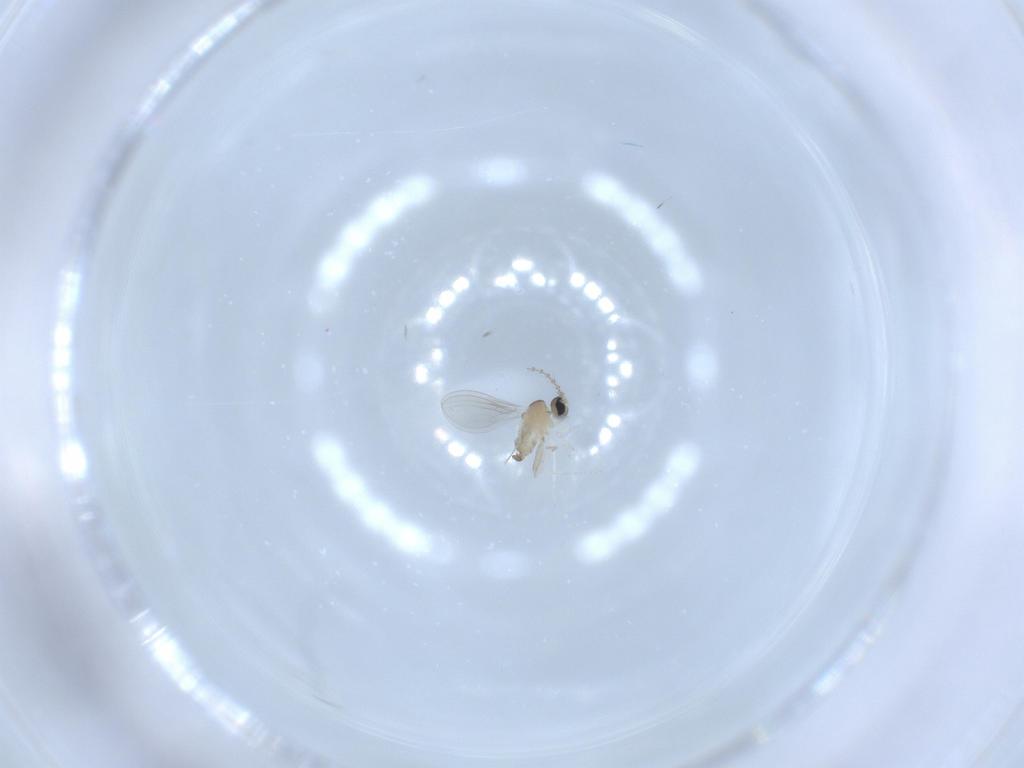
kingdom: Animalia
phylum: Arthropoda
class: Insecta
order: Diptera
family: Cecidomyiidae
